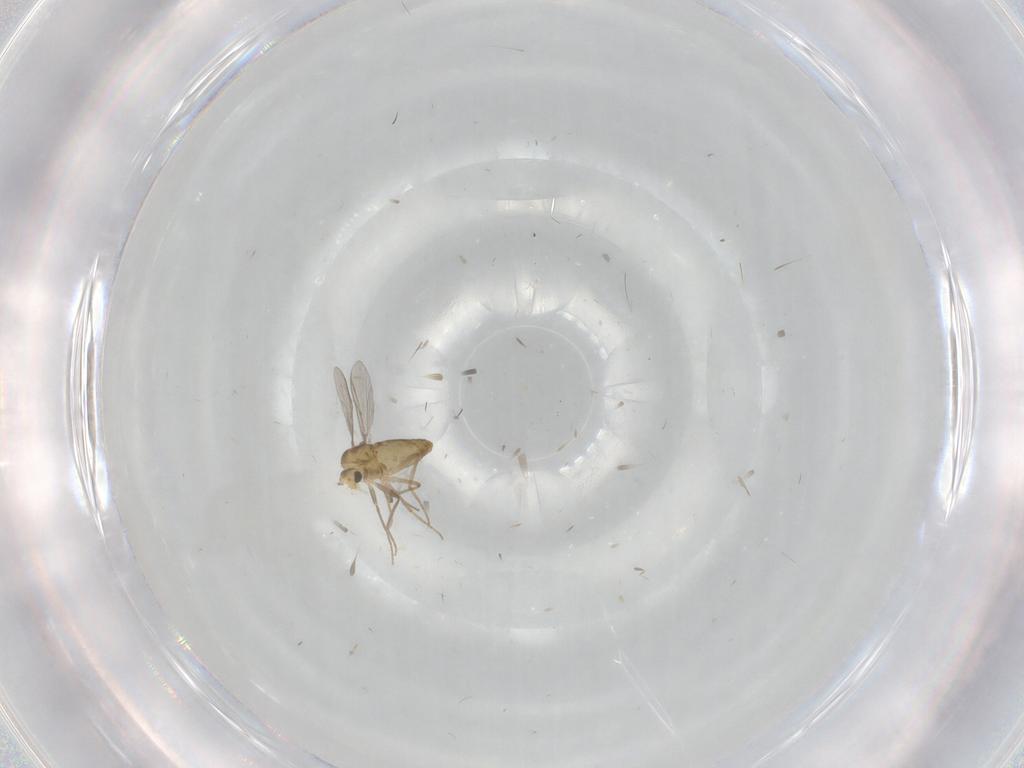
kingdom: Animalia
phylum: Arthropoda
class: Insecta
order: Diptera
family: Chironomidae
